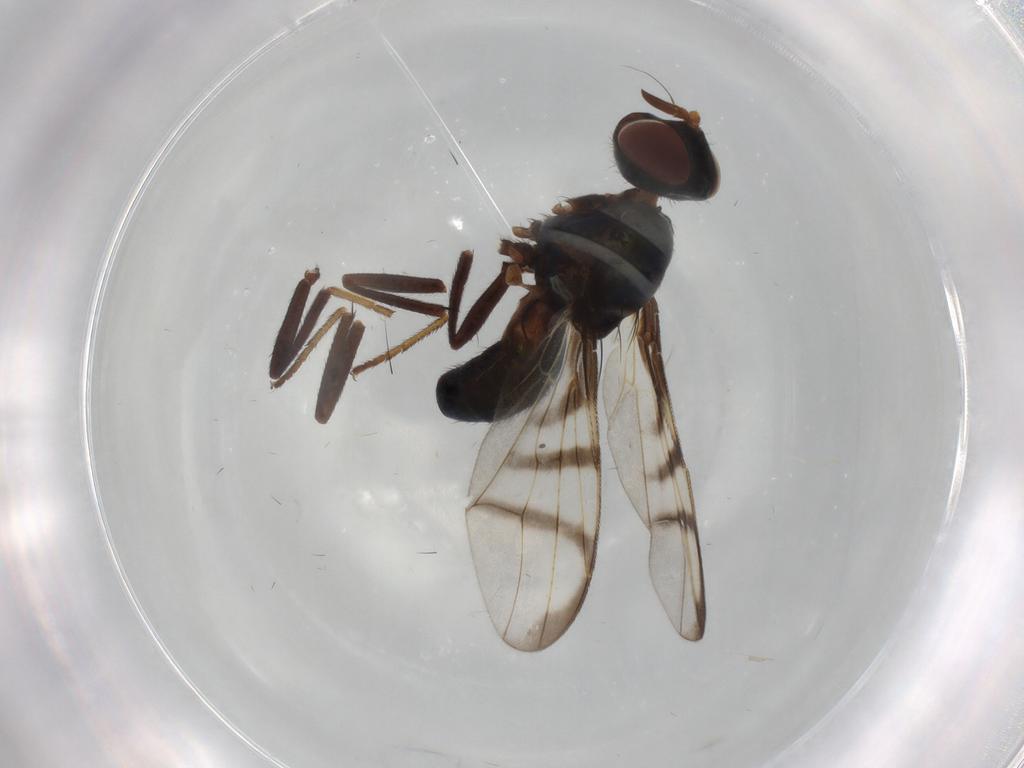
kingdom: Animalia
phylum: Arthropoda
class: Insecta
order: Diptera
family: Platystomatidae
